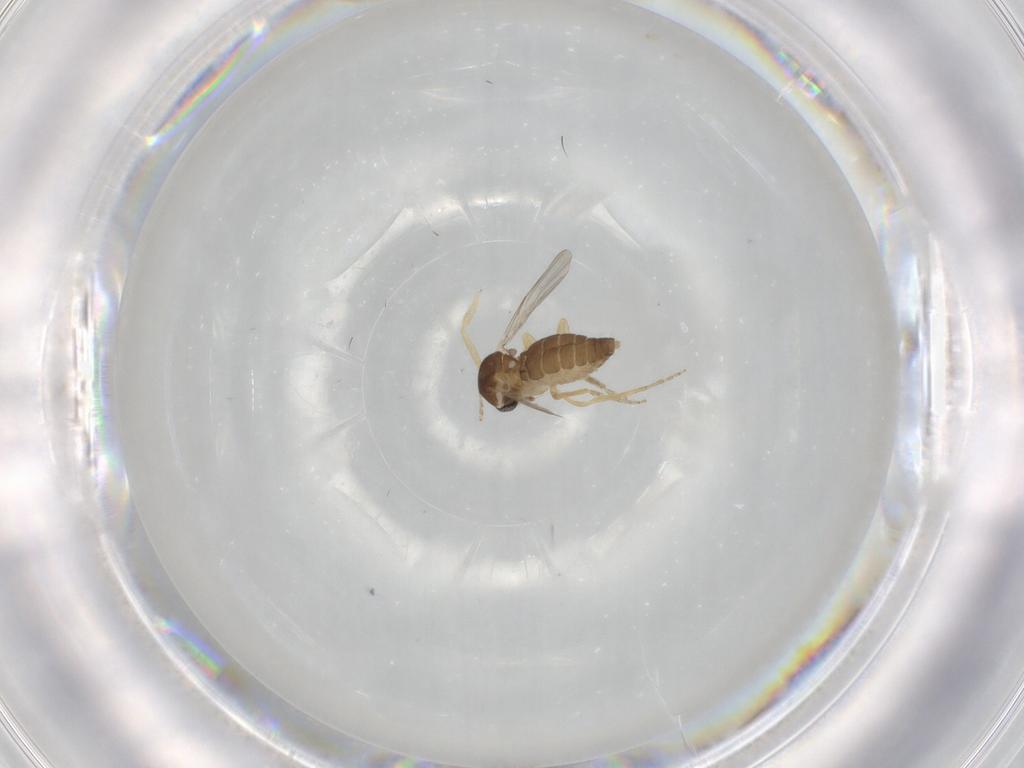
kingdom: Animalia
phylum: Arthropoda
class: Insecta
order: Diptera
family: Ceratopogonidae
